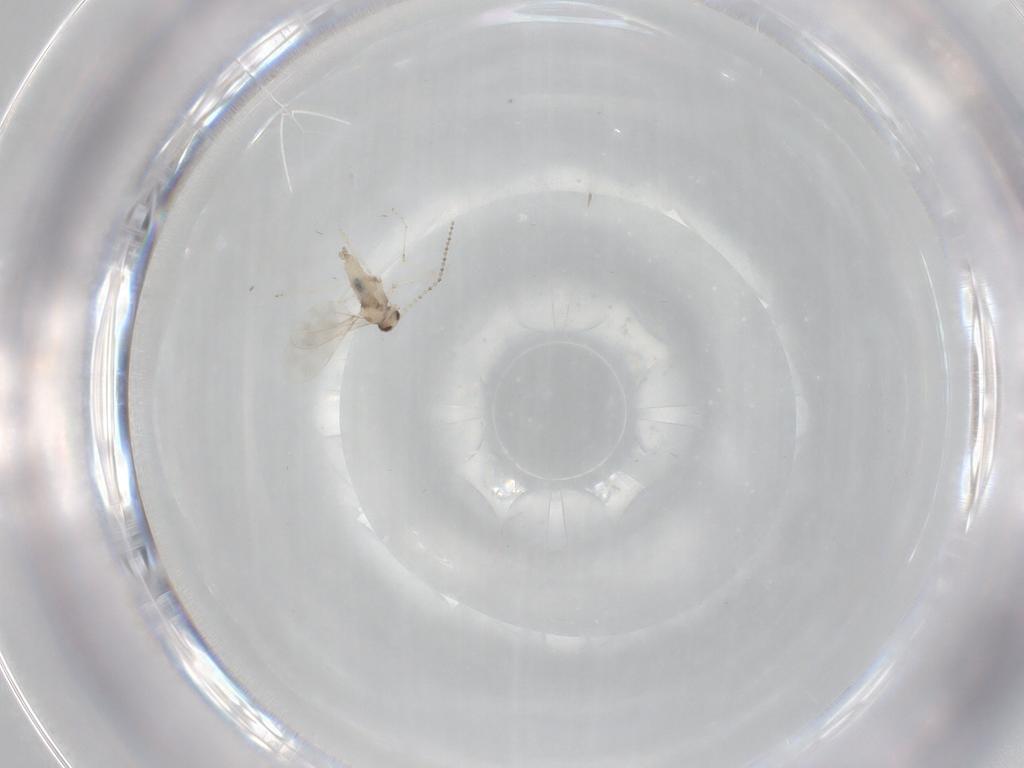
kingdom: Animalia
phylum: Arthropoda
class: Insecta
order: Diptera
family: Cecidomyiidae
